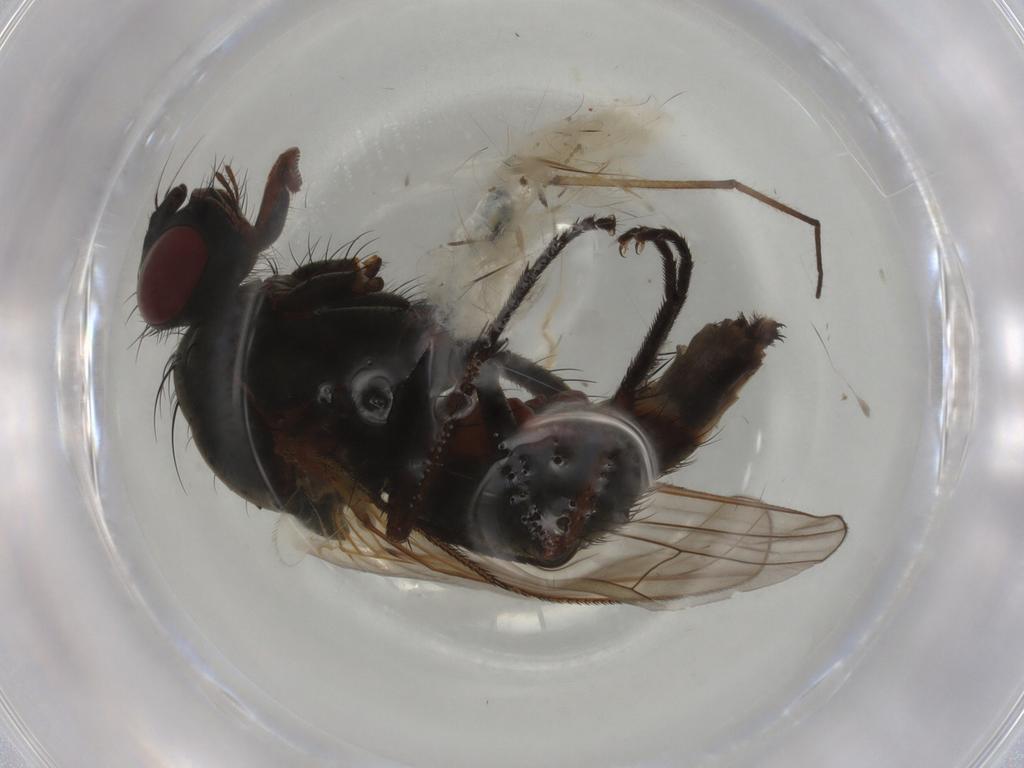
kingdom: Animalia
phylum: Arthropoda
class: Insecta
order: Diptera
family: Anthomyiidae
